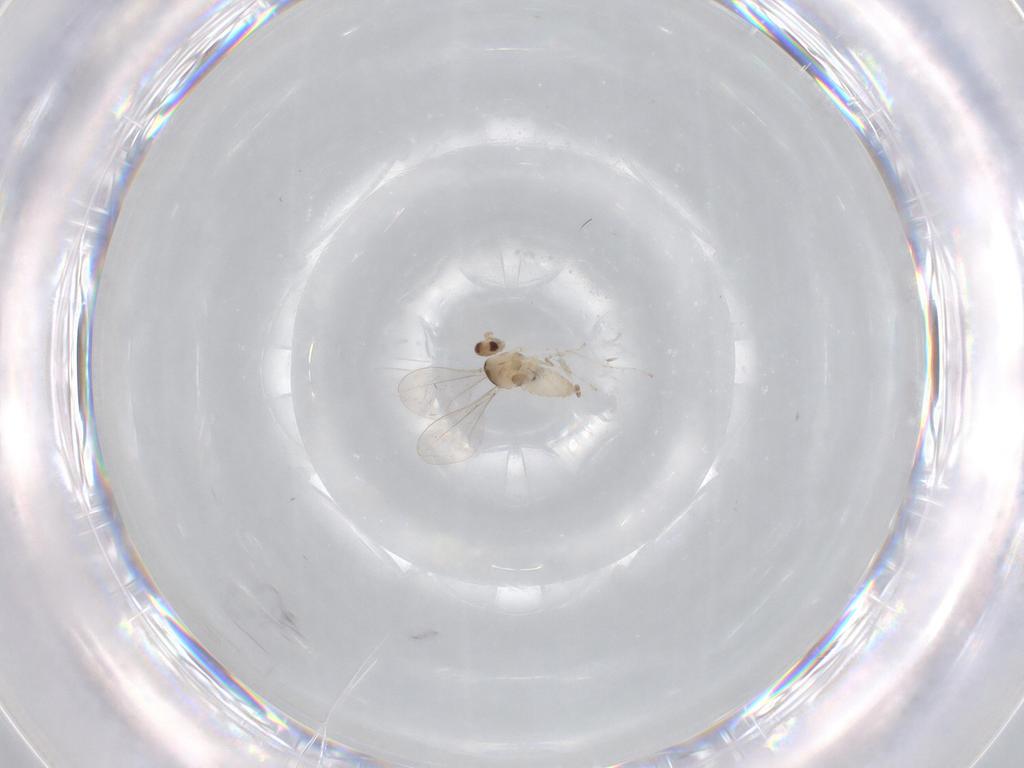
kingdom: Animalia
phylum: Arthropoda
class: Insecta
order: Diptera
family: Cecidomyiidae
